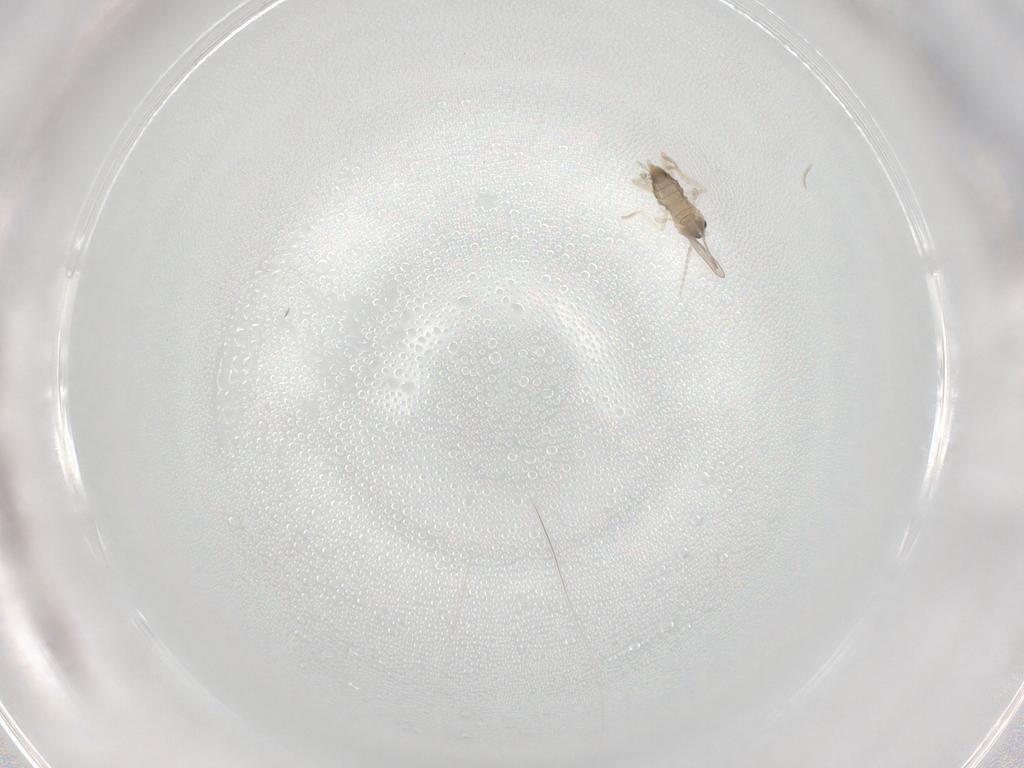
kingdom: Animalia
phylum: Arthropoda
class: Insecta
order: Diptera
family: Agromyzidae
